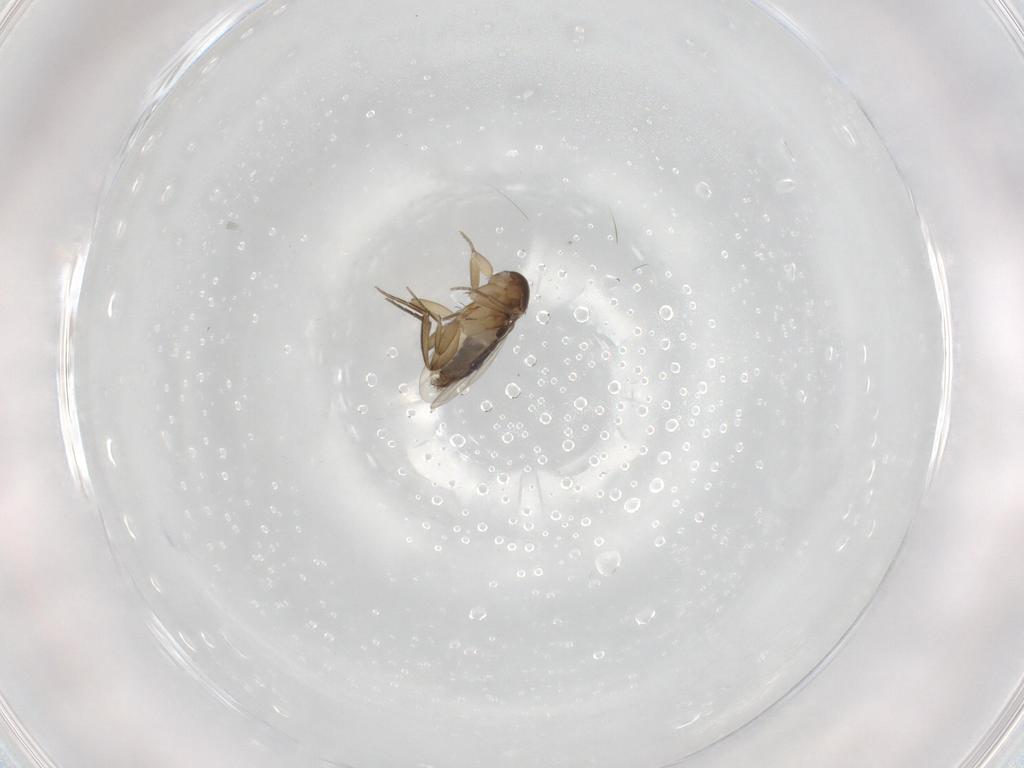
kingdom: Animalia
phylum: Arthropoda
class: Insecta
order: Diptera
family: Phoridae
